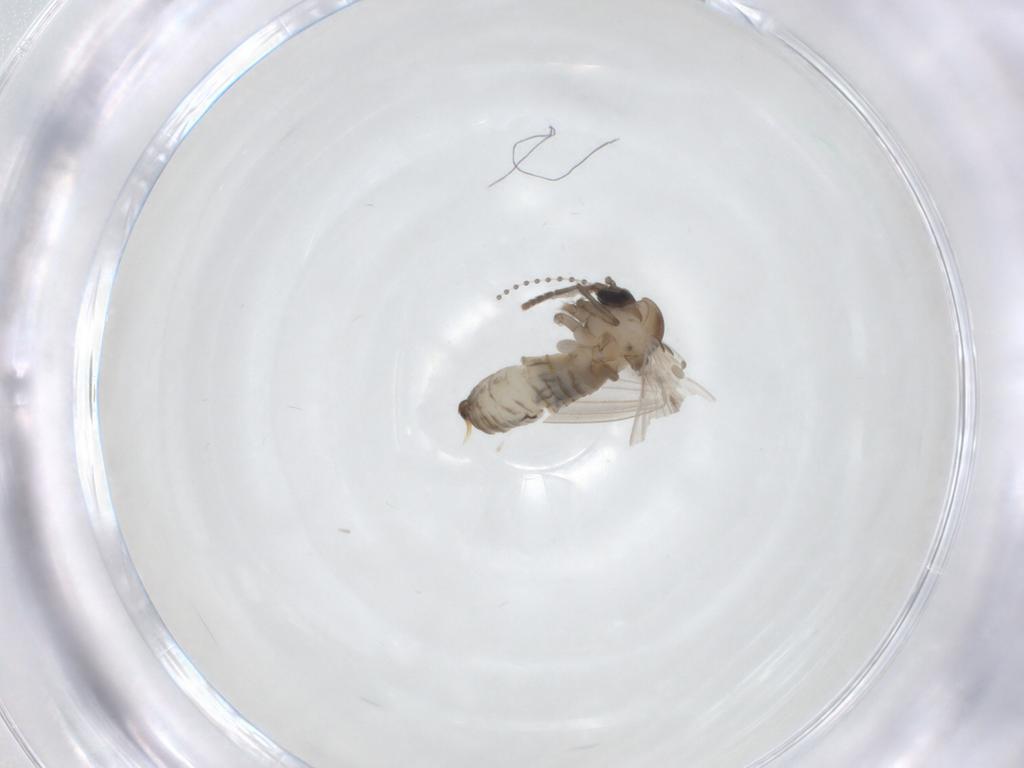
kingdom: Animalia
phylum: Arthropoda
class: Insecta
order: Diptera
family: Psychodidae
